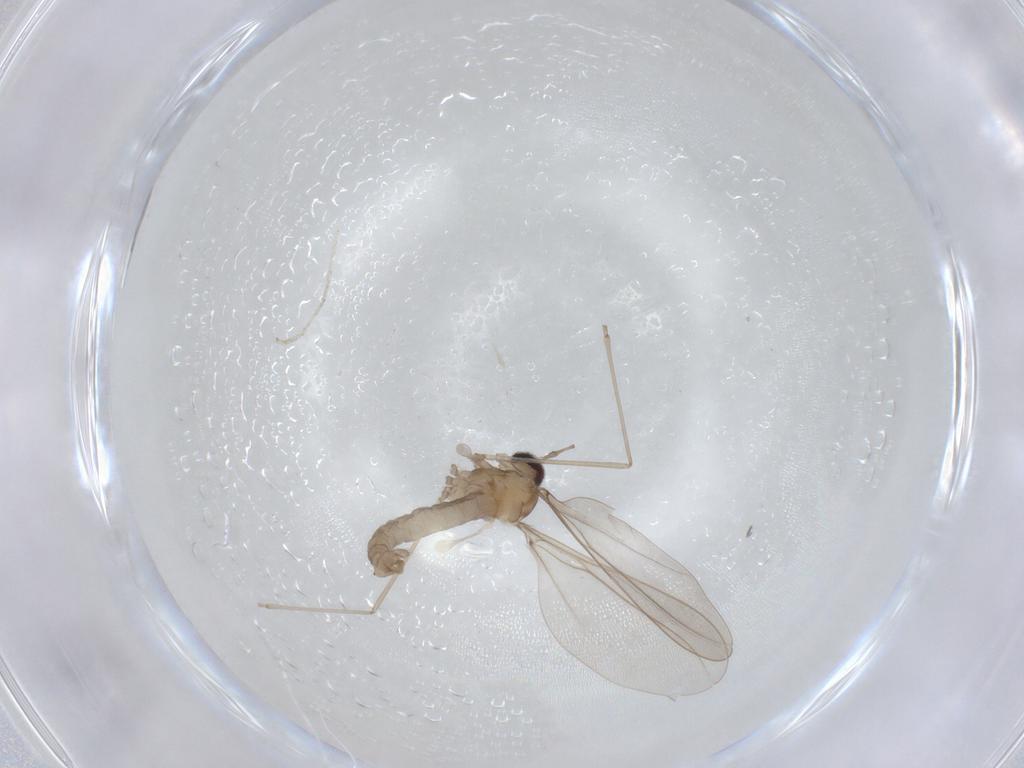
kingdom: Animalia
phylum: Arthropoda
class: Insecta
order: Diptera
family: Cecidomyiidae
